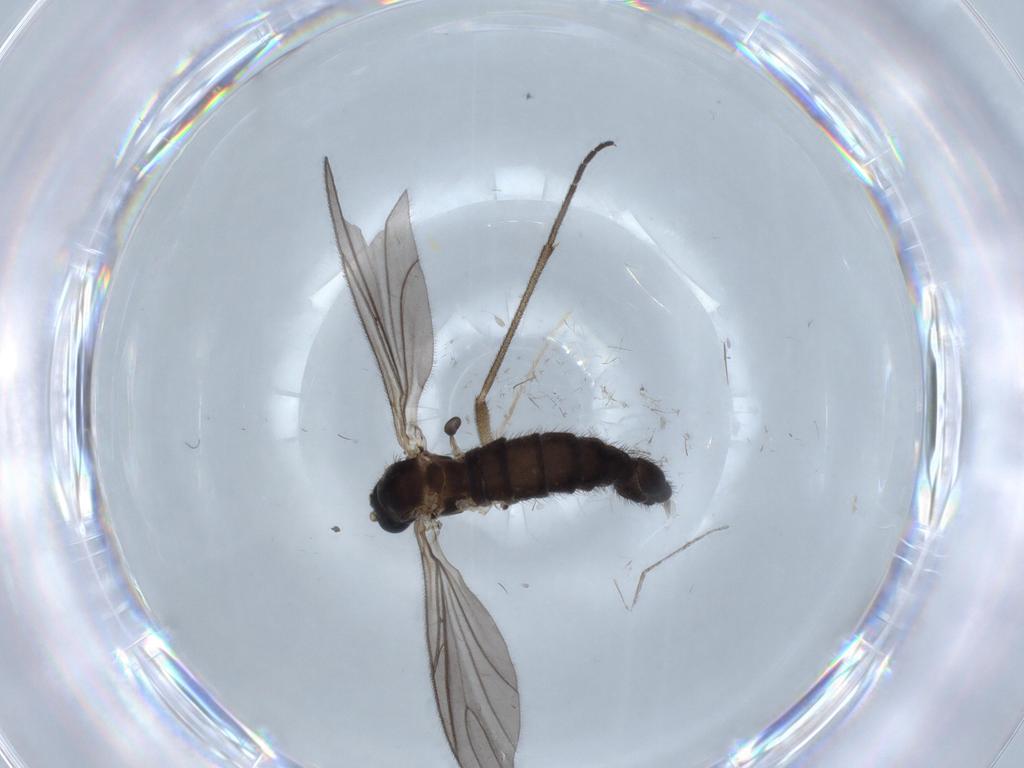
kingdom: Animalia
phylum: Arthropoda
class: Insecta
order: Diptera
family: Sciaridae
